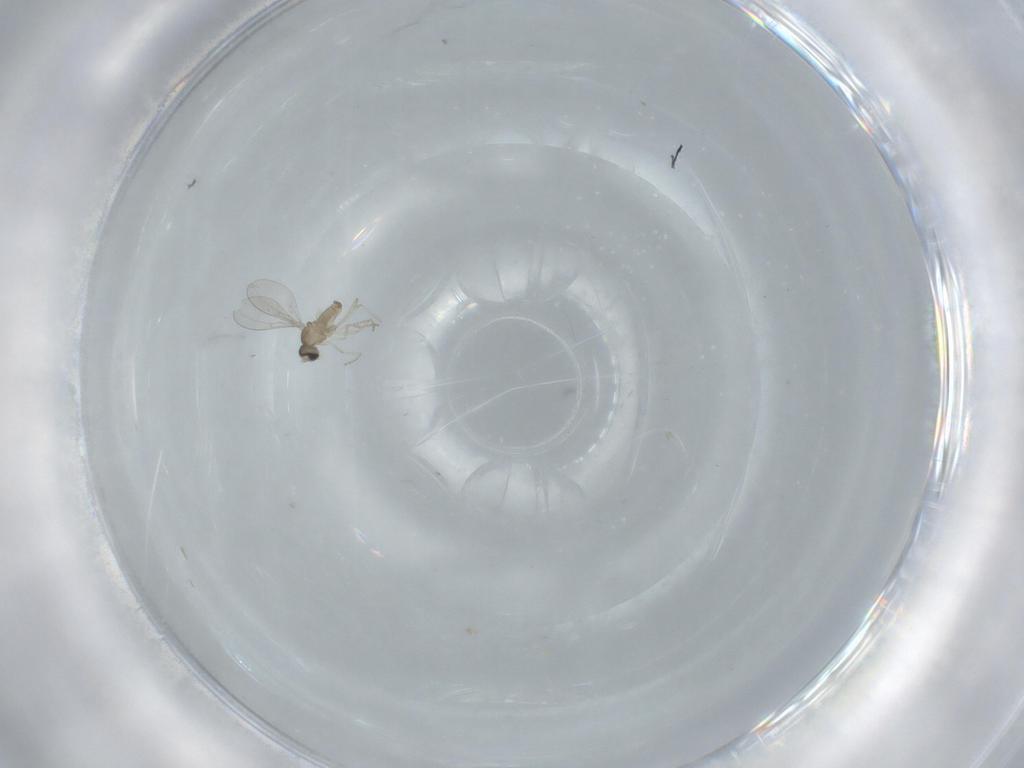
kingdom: Animalia
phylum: Arthropoda
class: Insecta
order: Diptera
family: Cecidomyiidae
